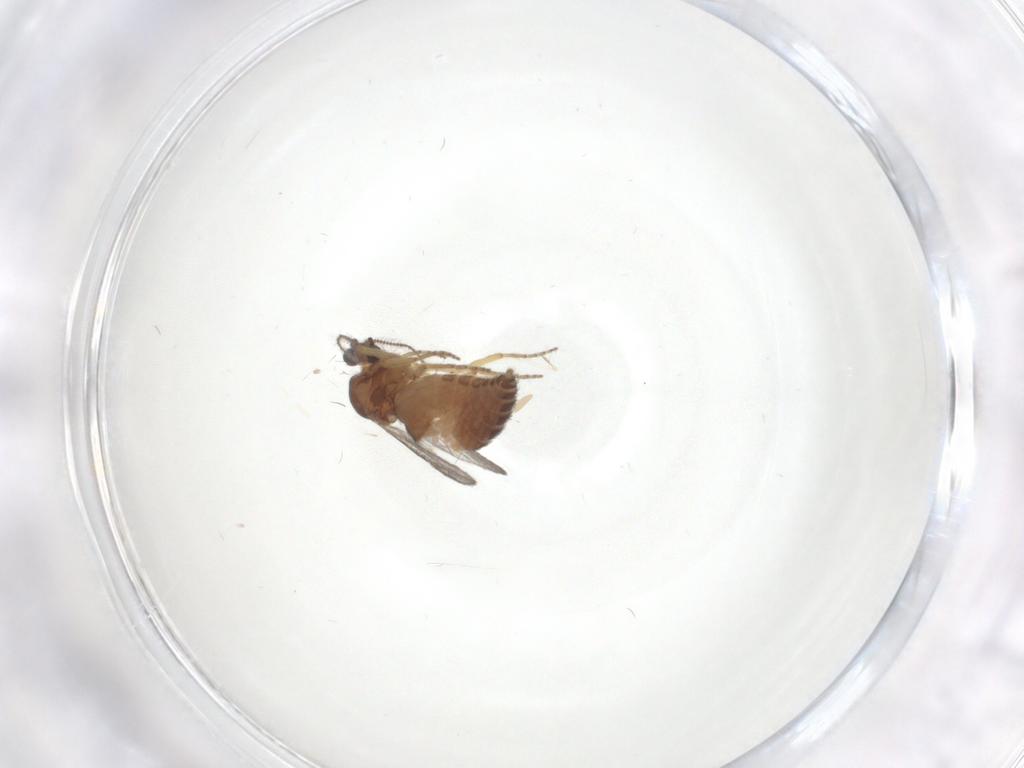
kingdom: Animalia
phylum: Arthropoda
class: Insecta
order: Diptera
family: Ceratopogonidae
